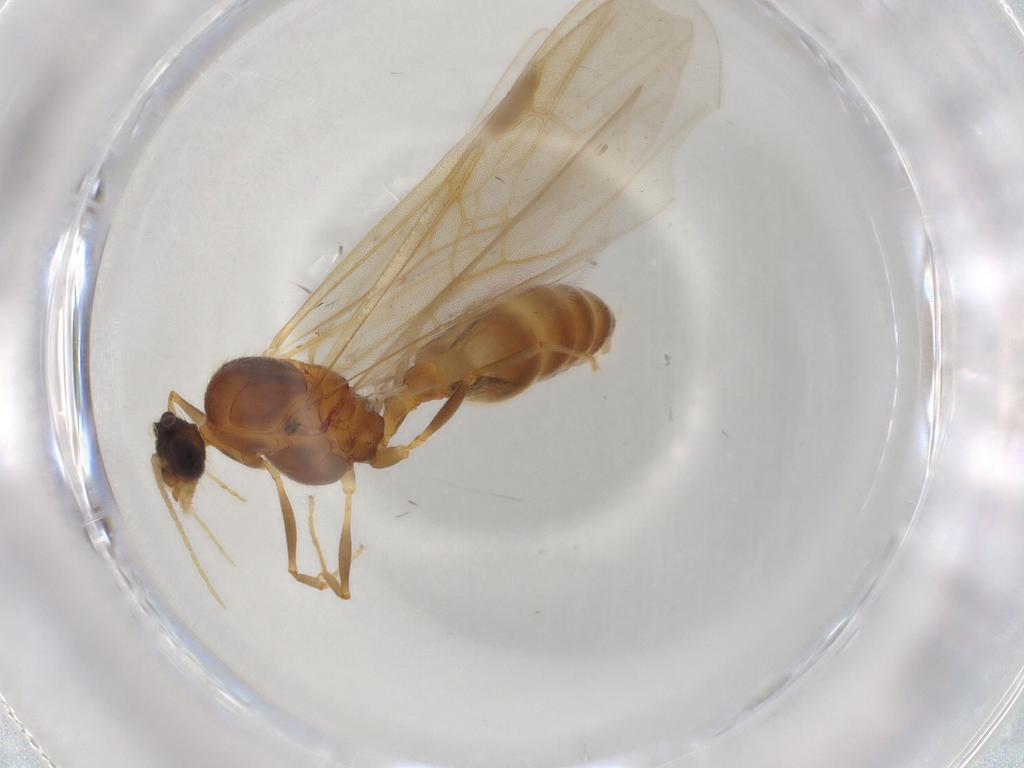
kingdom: Animalia
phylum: Arthropoda
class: Insecta
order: Hymenoptera
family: Formicidae
